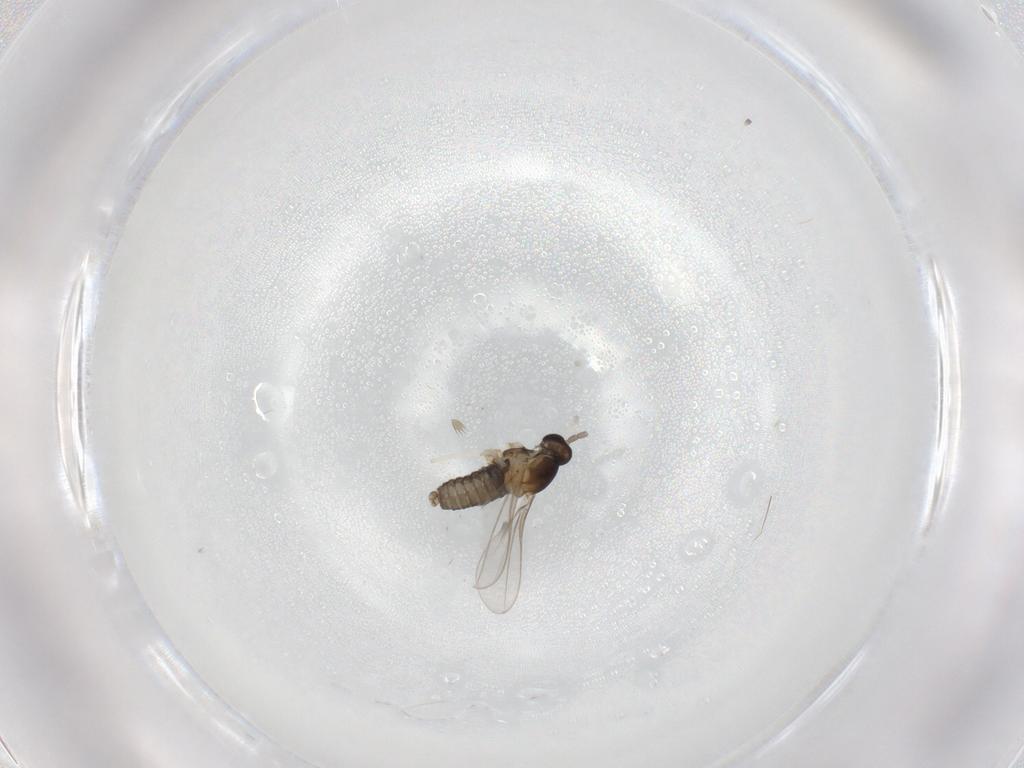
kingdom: Animalia
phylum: Arthropoda
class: Insecta
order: Diptera
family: Cecidomyiidae
